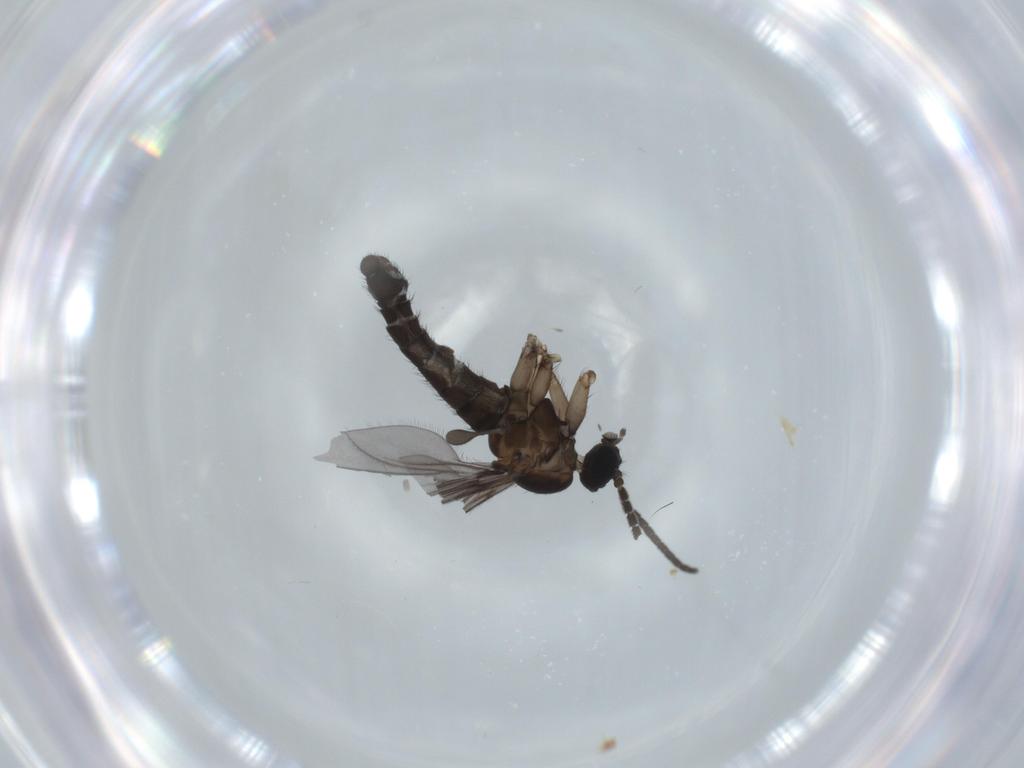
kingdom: Animalia
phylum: Arthropoda
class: Insecta
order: Diptera
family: Sciaridae
